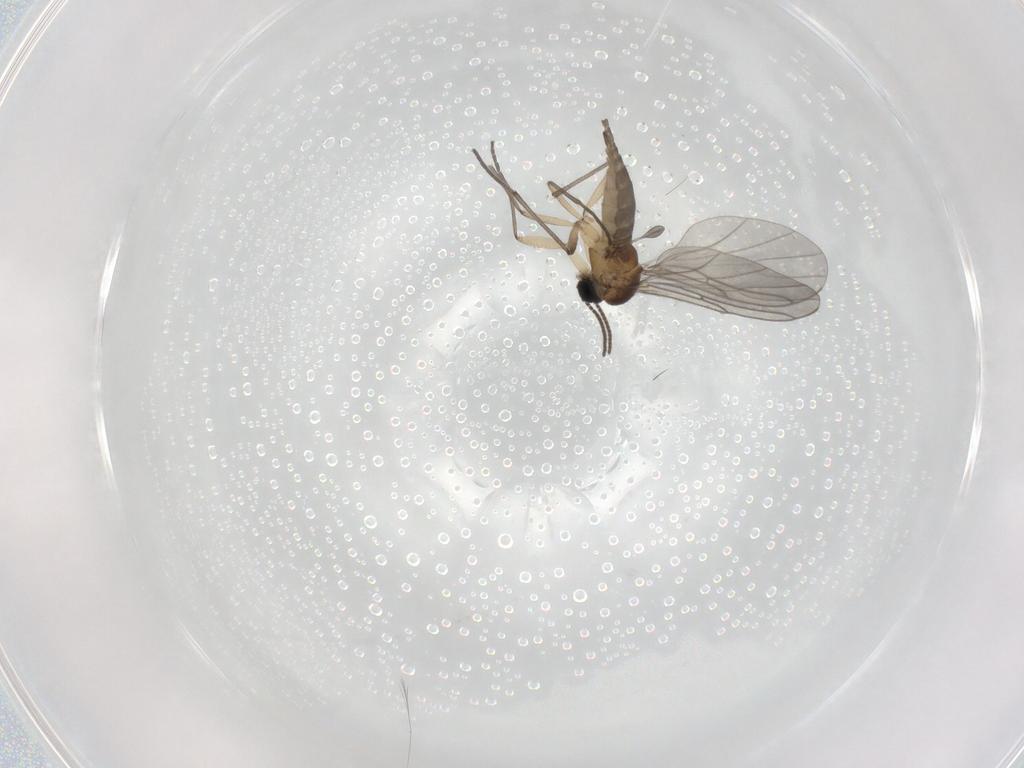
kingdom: Animalia
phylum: Arthropoda
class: Insecta
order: Diptera
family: Sciaridae
